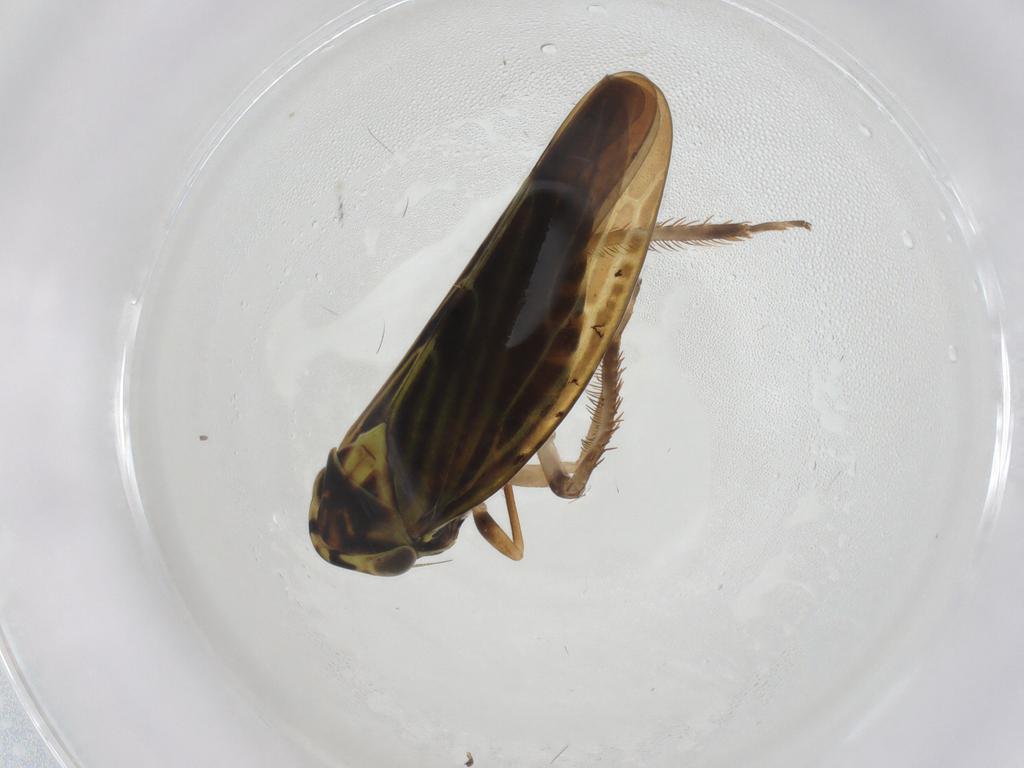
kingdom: Animalia
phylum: Arthropoda
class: Insecta
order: Hemiptera
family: Cicadellidae
